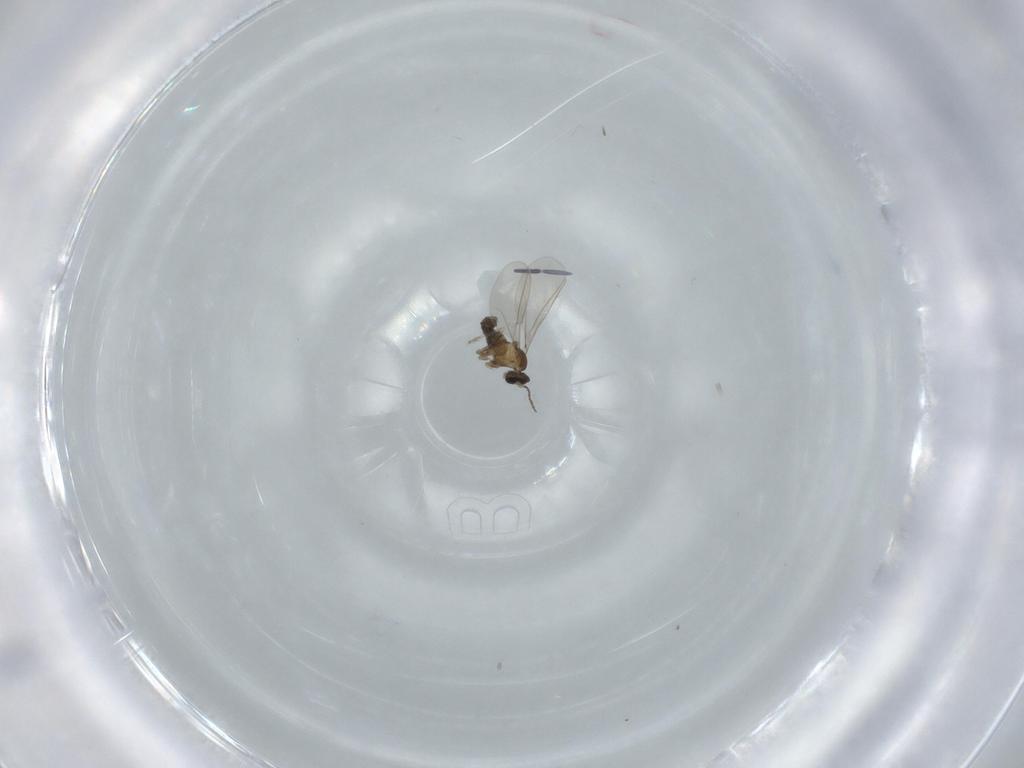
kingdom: Animalia
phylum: Arthropoda
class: Insecta
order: Diptera
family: Cecidomyiidae
